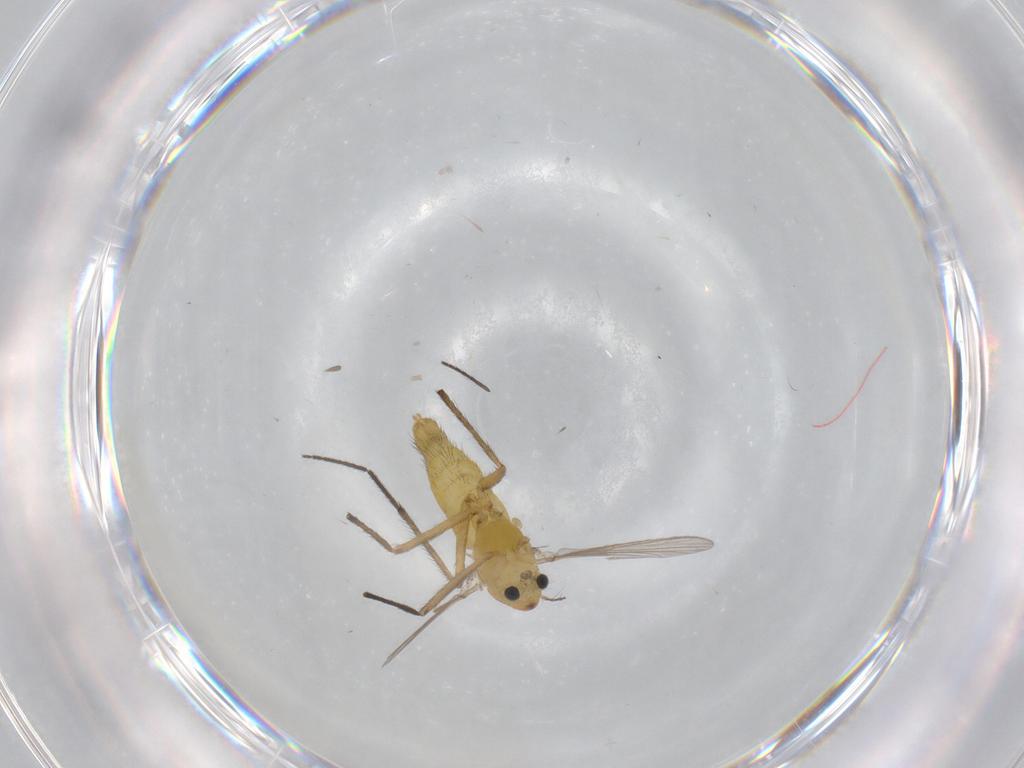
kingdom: Animalia
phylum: Arthropoda
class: Insecta
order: Diptera
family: Chironomidae
